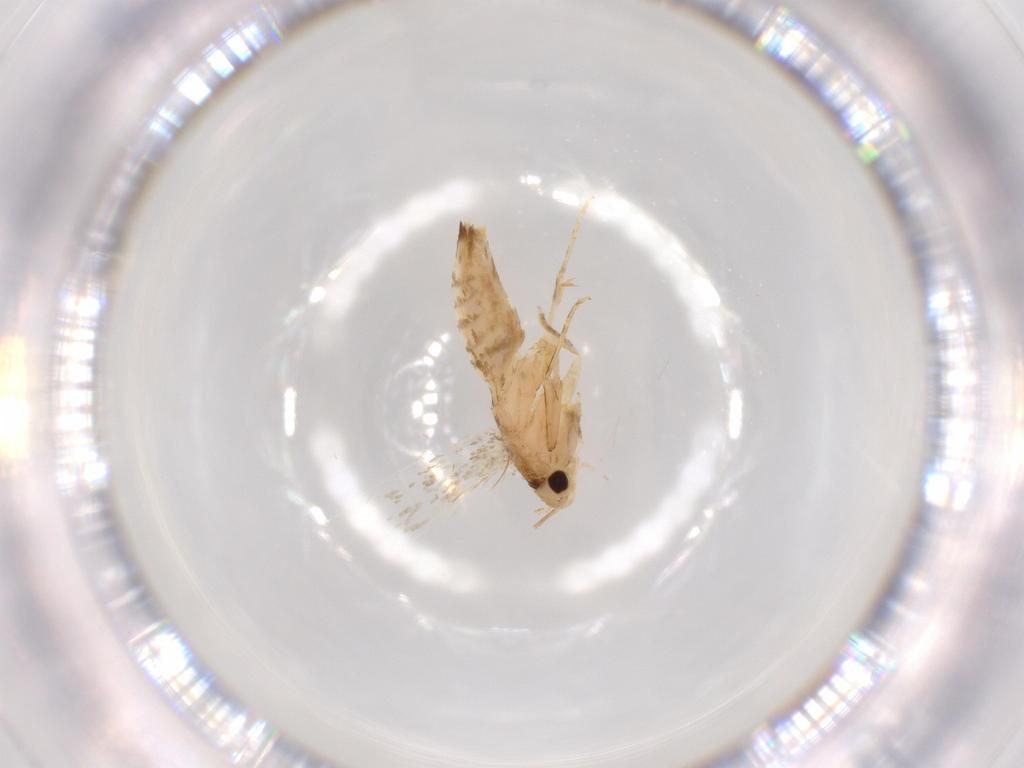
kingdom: Animalia
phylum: Arthropoda
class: Insecta
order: Lepidoptera
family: Tineidae
